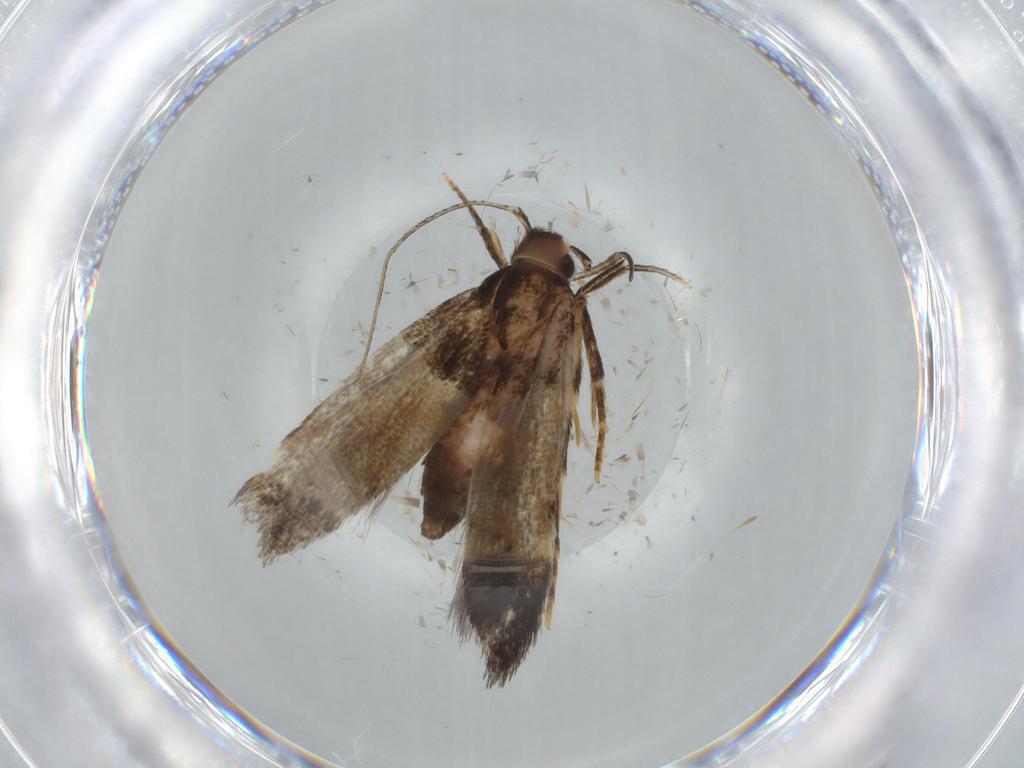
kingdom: Animalia
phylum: Arthropoda
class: Insecta
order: Lepidoptera
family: Cosmopterigidae
